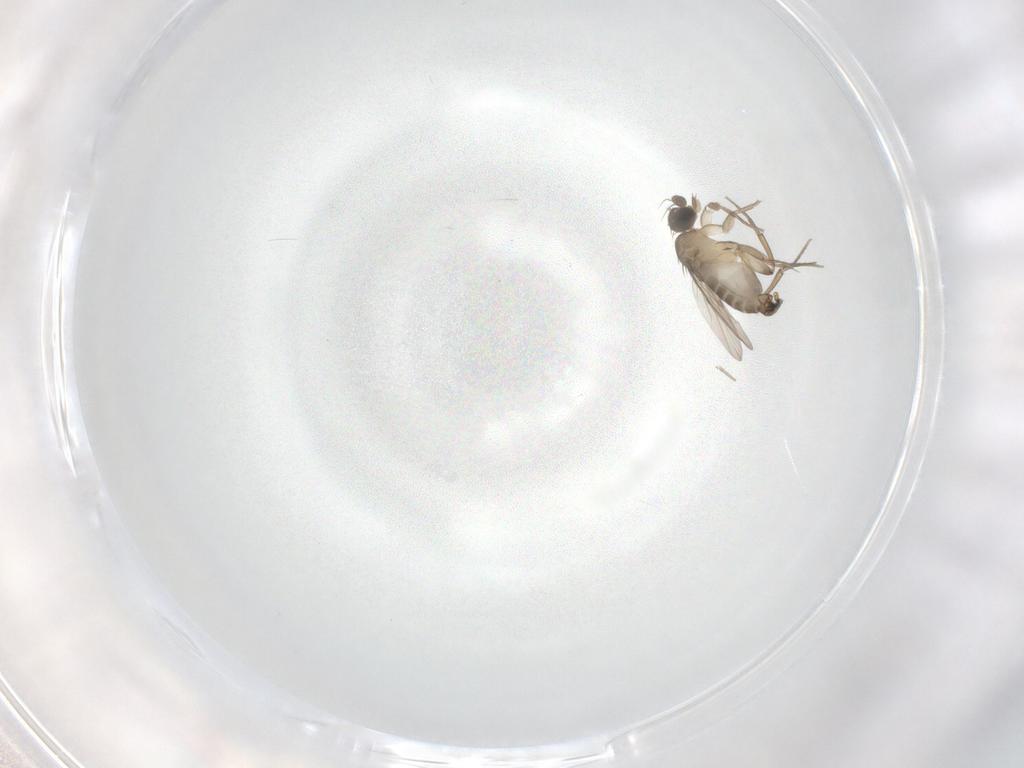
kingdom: Animalia
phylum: Arthropoda
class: Insecta
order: Diptera
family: Phoridae
